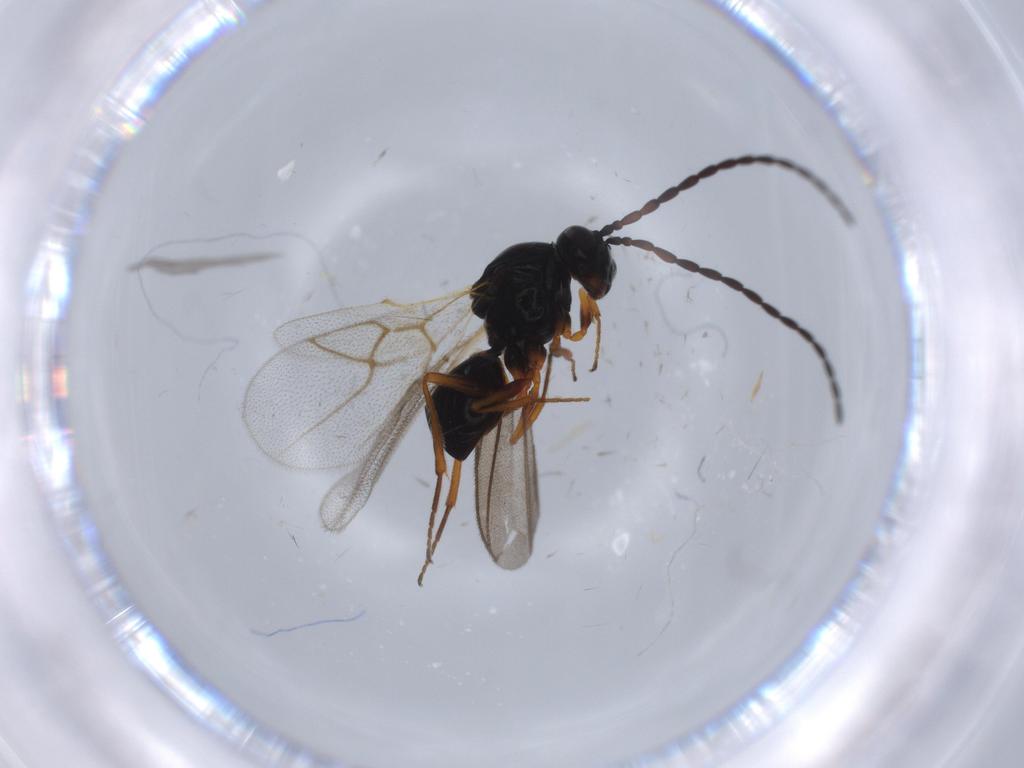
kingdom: Animalia
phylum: Arthropoda
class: Insecta
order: Hymenoptera
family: Figitidae
